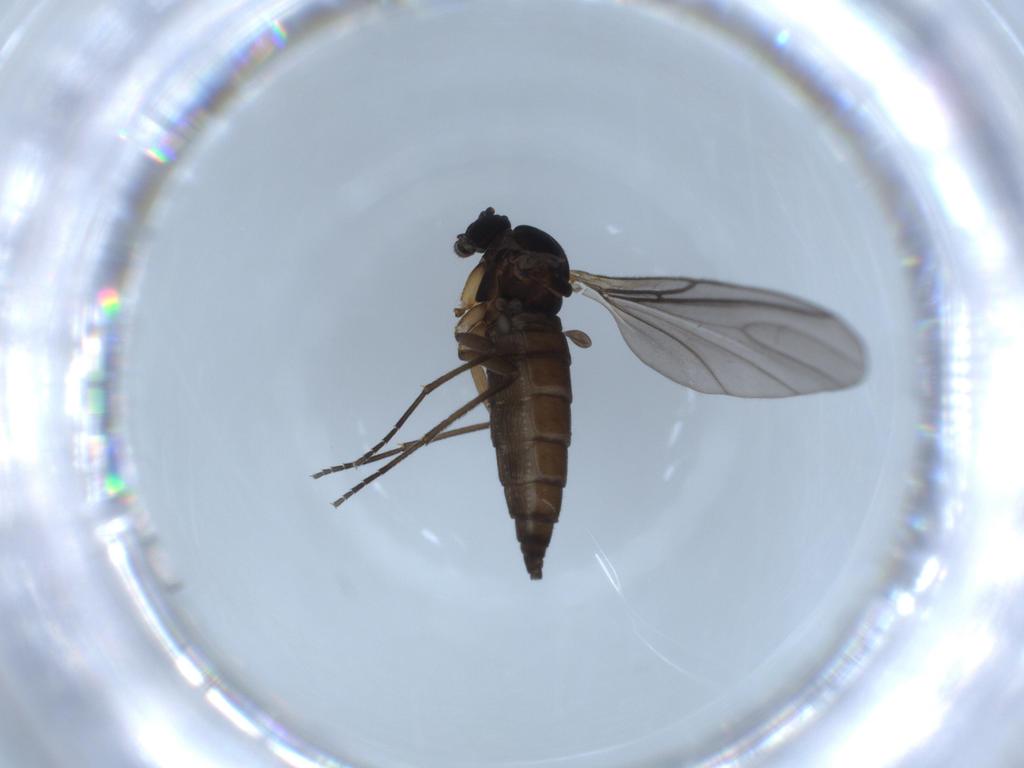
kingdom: Animalia
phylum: Arthropoda
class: Insecta
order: Diptera
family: Sciaridae
